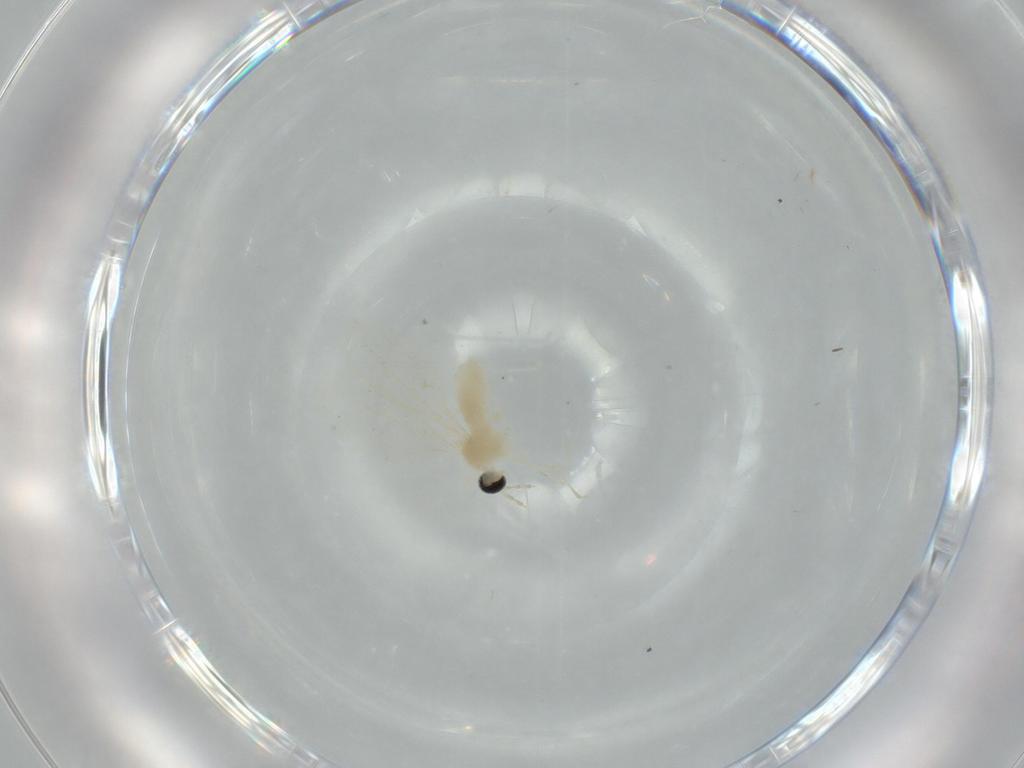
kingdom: Animalia
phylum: Arthropoda
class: Insecta
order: Diptera
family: Cecidomyiidae
